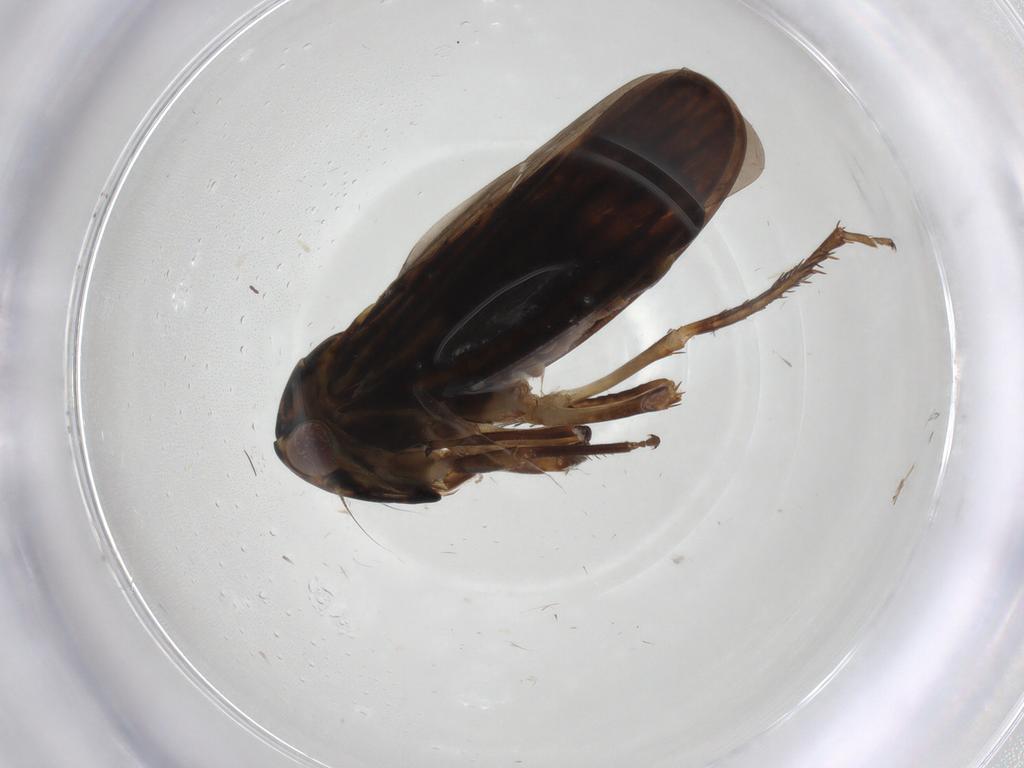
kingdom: Animalia
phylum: Arthropoda
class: Insecta
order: Hemiptera
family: Cicadellidae
